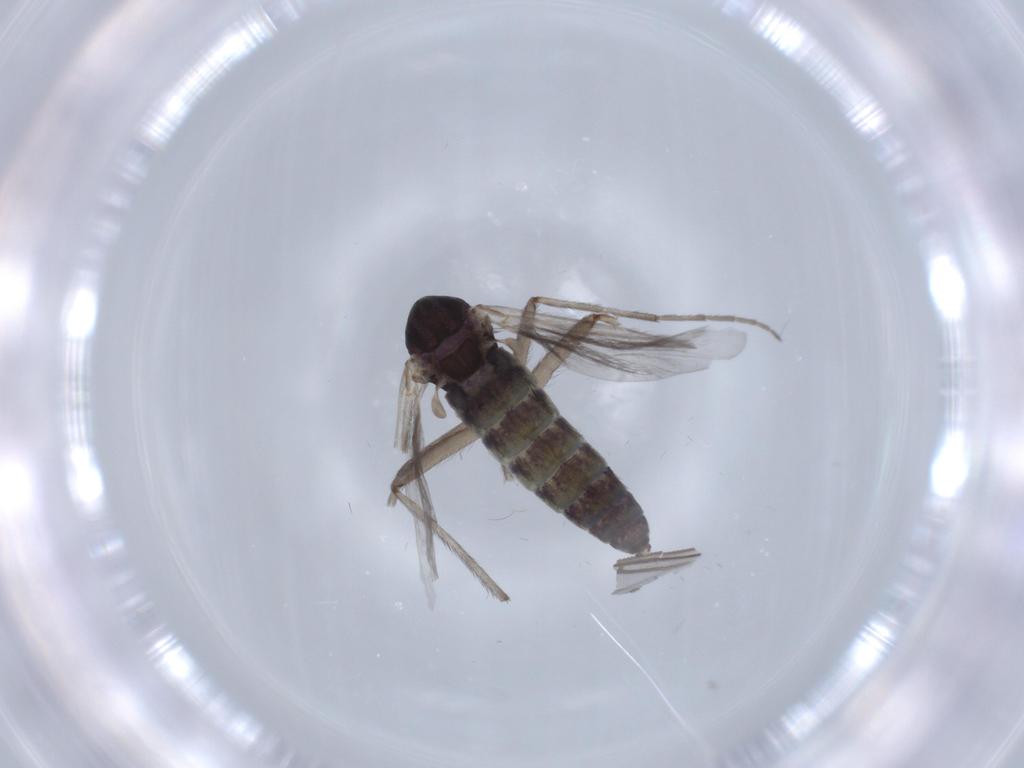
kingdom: Animalia
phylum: Arthropoda
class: Insecta
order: Diptera
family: Chironomidae
